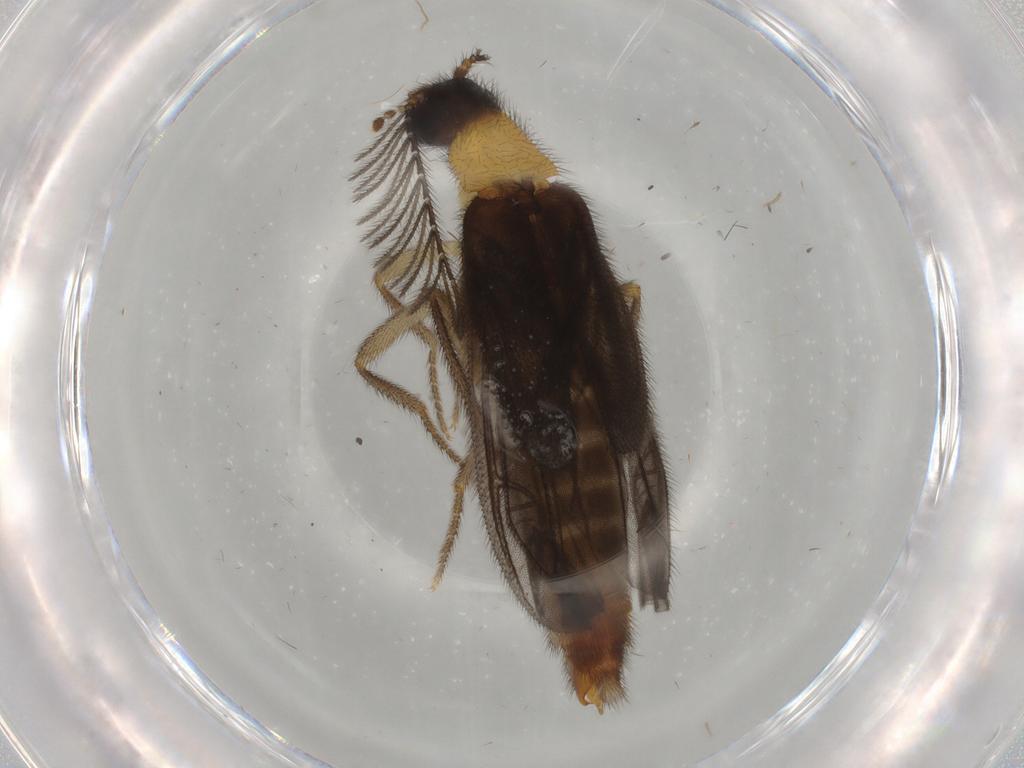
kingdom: Animalia
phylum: Arthropoda
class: Insecta
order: Coleoptera
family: Phengodidae
